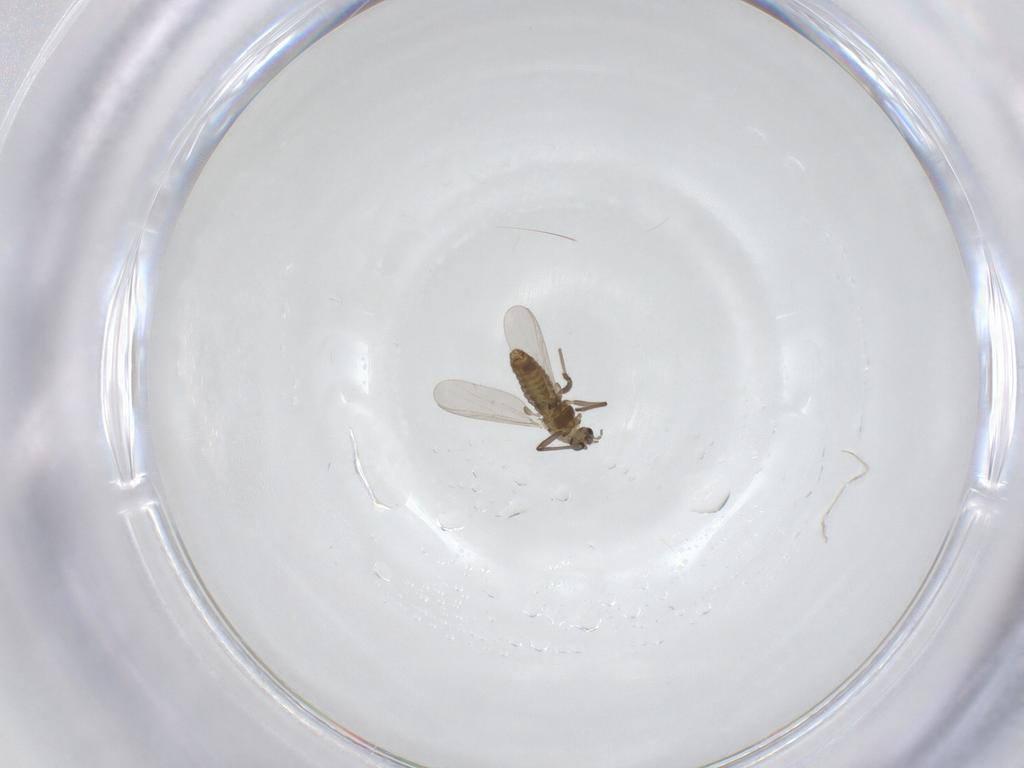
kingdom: Animalia
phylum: Arthropoda
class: Insecta
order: Diptera
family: Chironomidae
